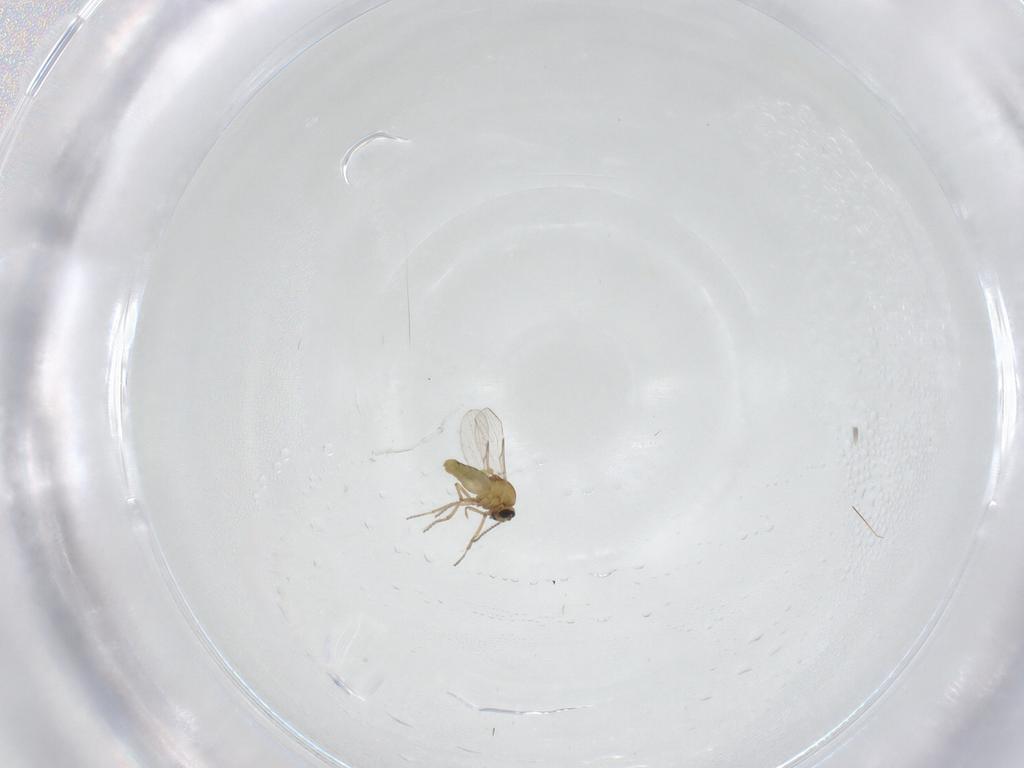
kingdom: Animalia
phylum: Arthropoda
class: Insecta
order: Diptera
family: Ceratopogonidae
